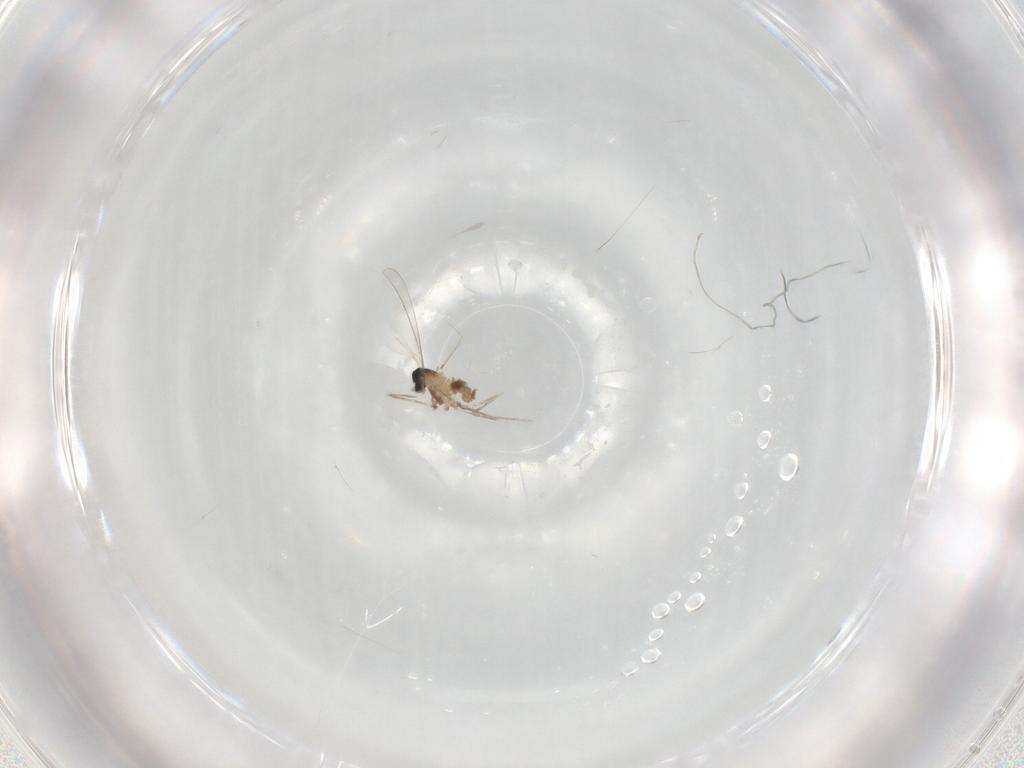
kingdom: Animalia
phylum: Arthropoda
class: Insecta
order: Diptera
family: Cecidomyiidae
